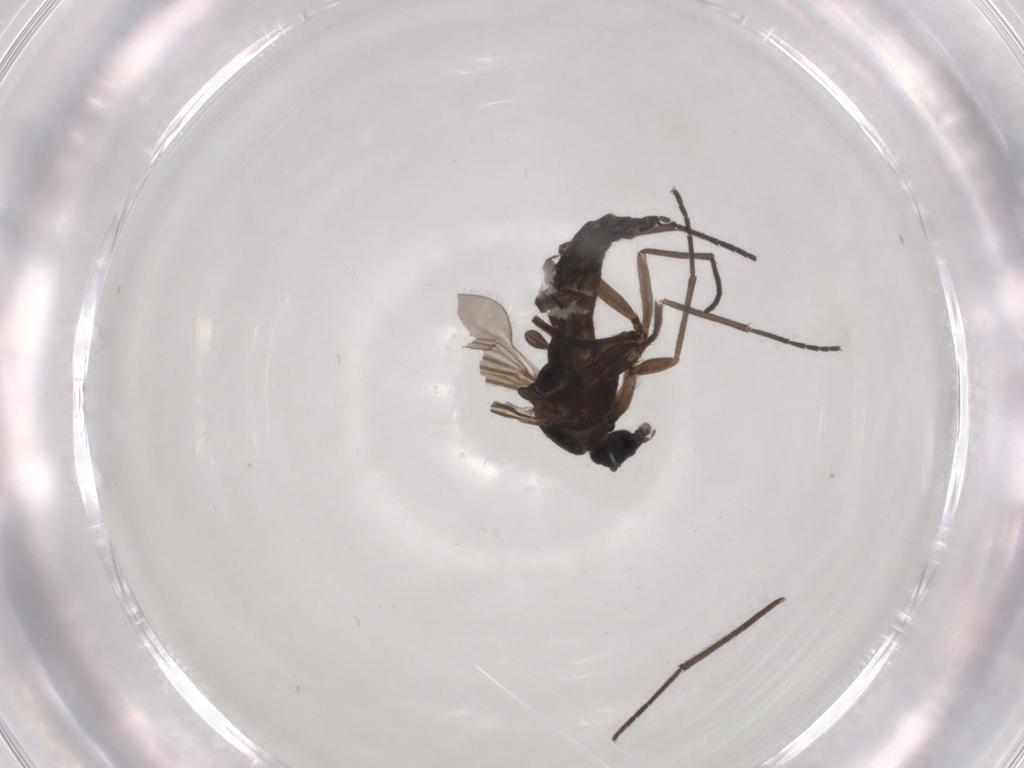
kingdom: Animalia
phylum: Arthropoda
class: Insecta
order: Diptera
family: Sciaridae
